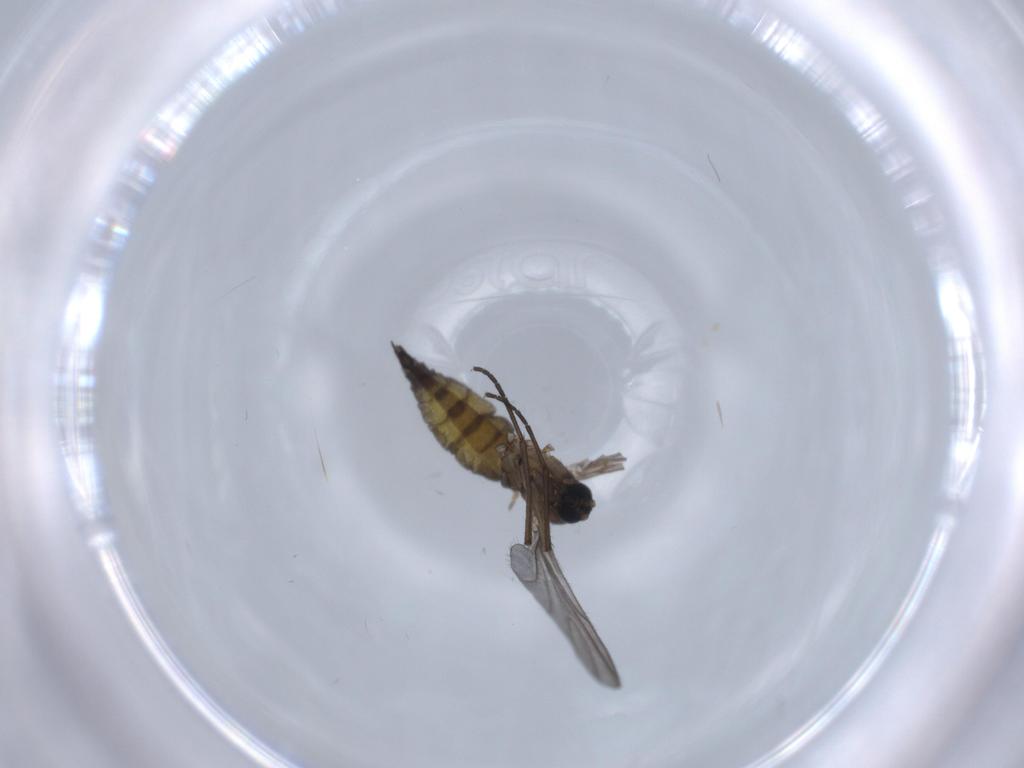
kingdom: Animalia
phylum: Arthropoda
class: Insecta
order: Diptera
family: Sciaridae
